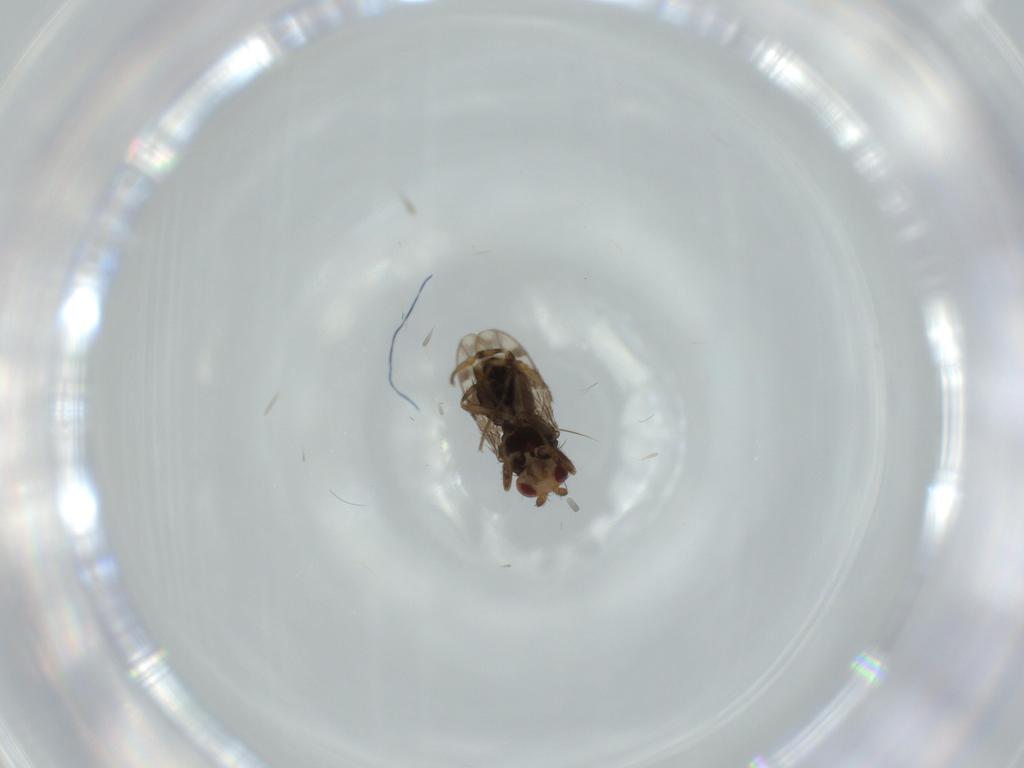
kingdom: Animalia
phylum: Arthropoda
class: Insecta
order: Diptera
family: Sphaeroceridae
